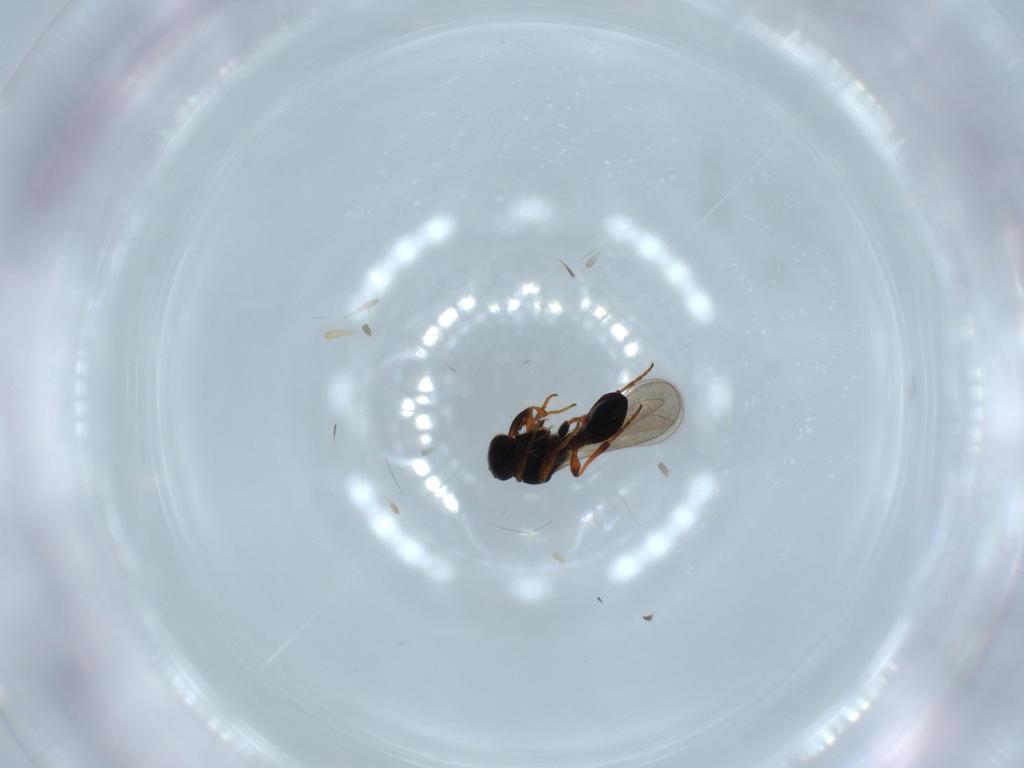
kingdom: Animalia
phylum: Arthropoda
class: Insecta
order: Hymenoptera
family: Platygastridae
